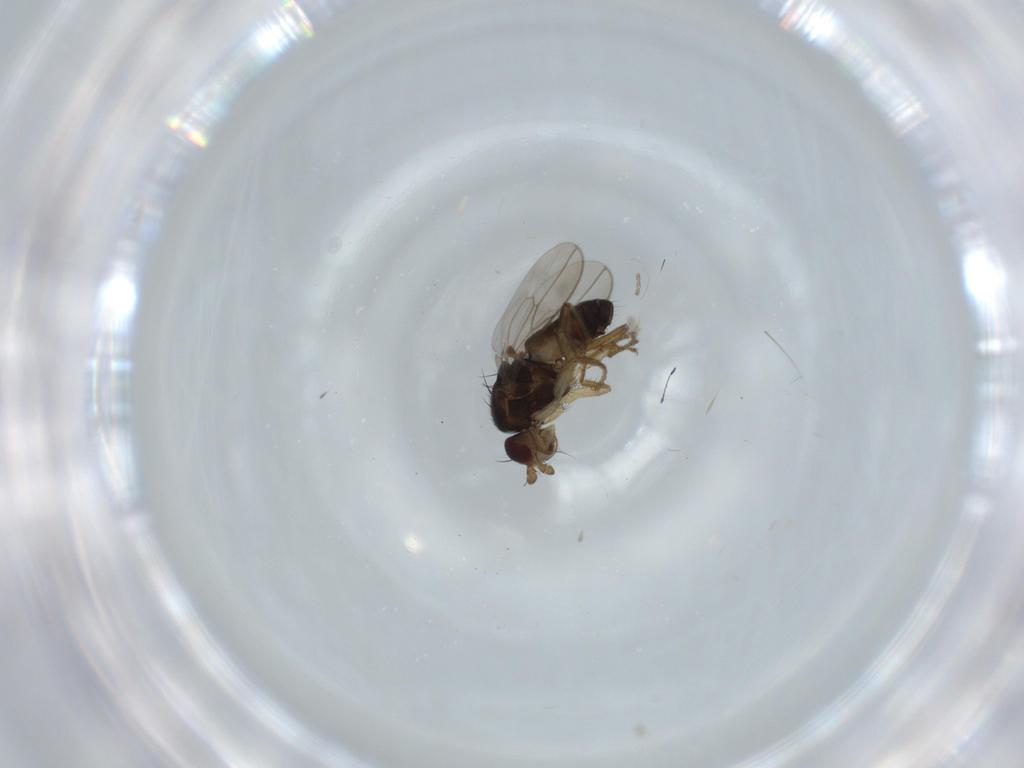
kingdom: Animalia
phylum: Arthropoda
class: Insecta
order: Diptera
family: Sphaeroceridae
